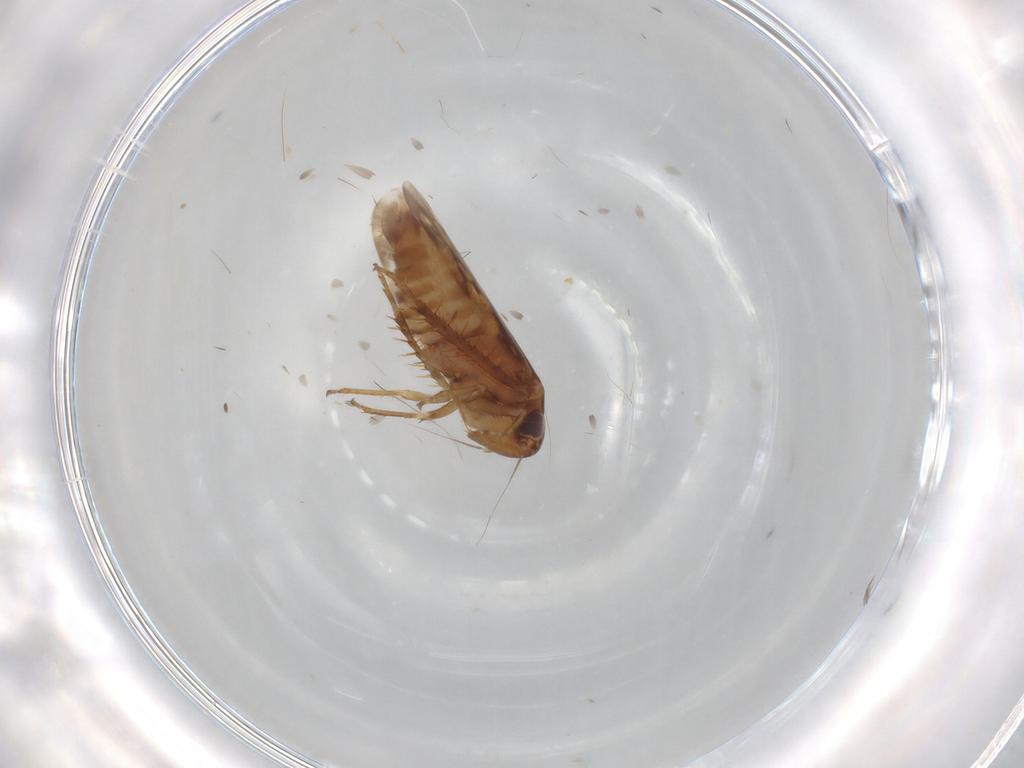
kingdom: Animalia
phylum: Arthropoda
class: Insecta
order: Hemiptera
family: Cicadellidae
